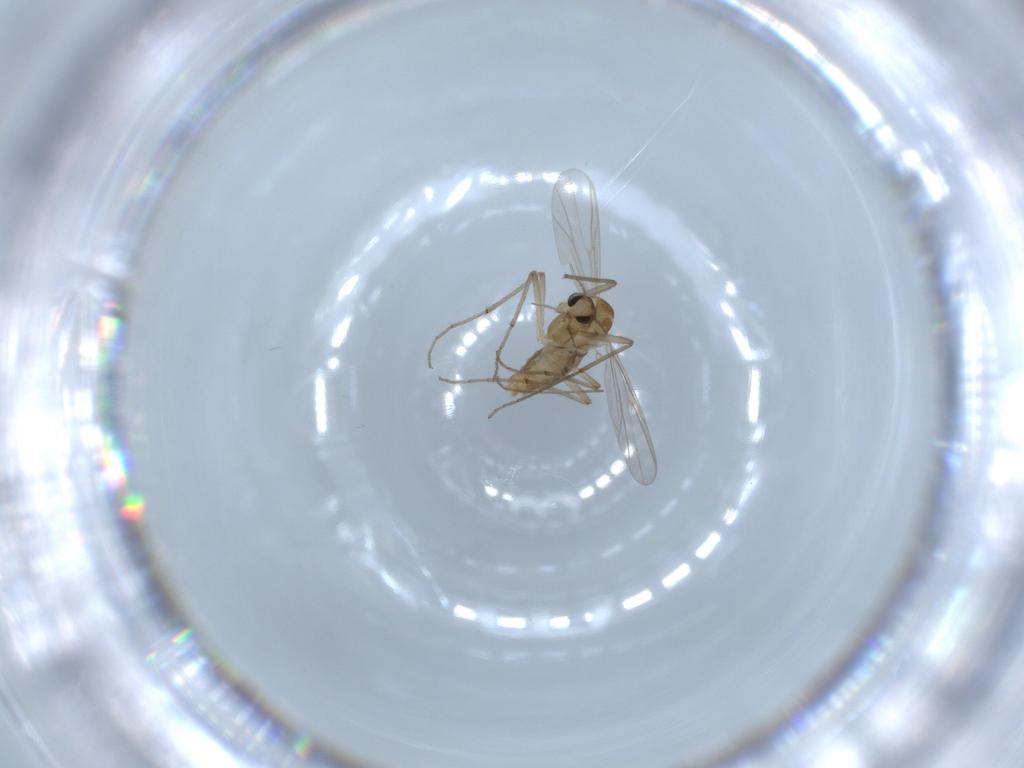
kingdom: Animalia
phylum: Arthropoda
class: Insecta
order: Diptera
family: Chironomidae
